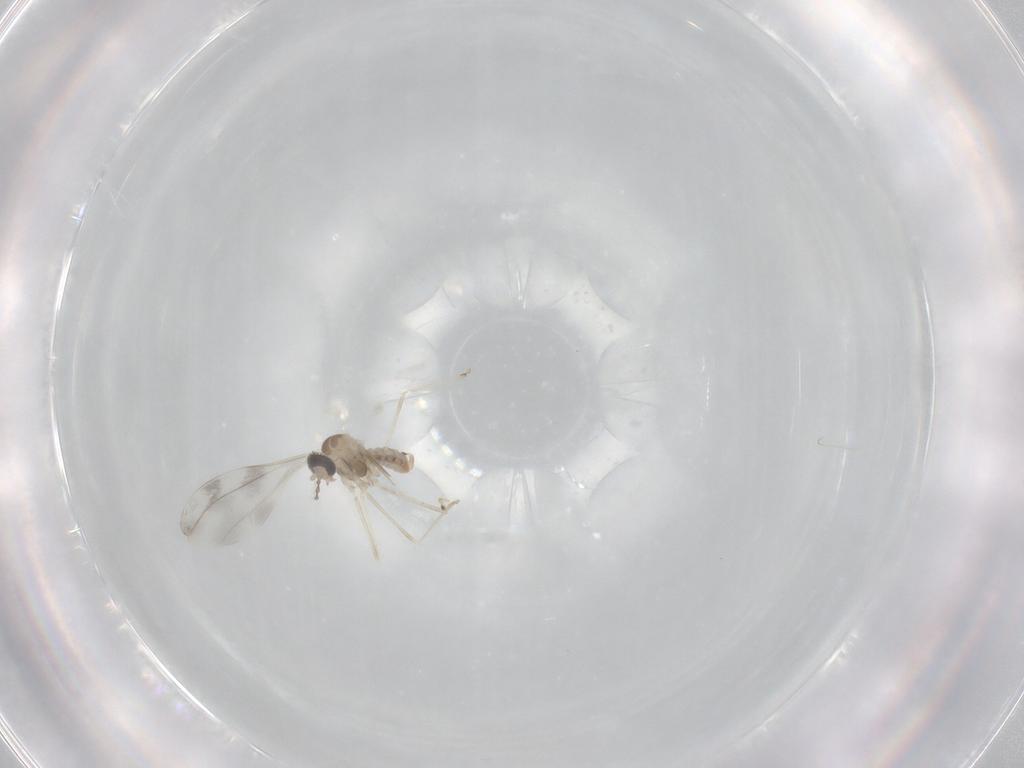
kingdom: Animalia
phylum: Arthropoda
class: Insecta
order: Diptera
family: Cecidomyiidae
